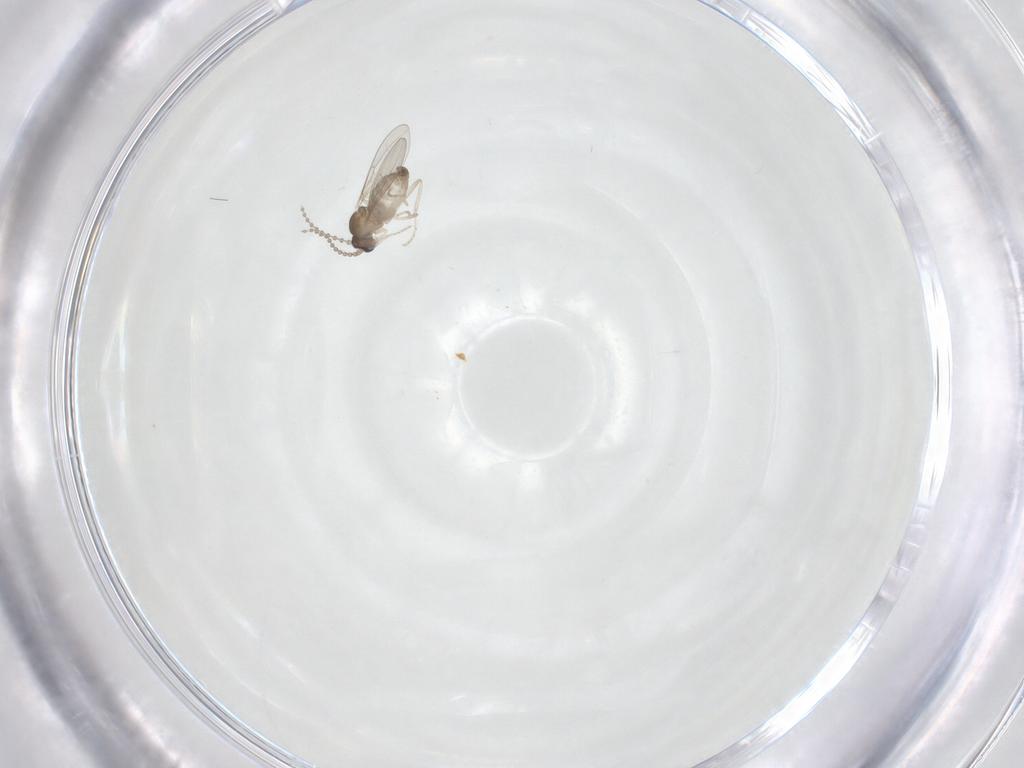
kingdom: Animalia
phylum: Arthropoda
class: Insecta
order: Diptera
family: Cecidomyiidae
